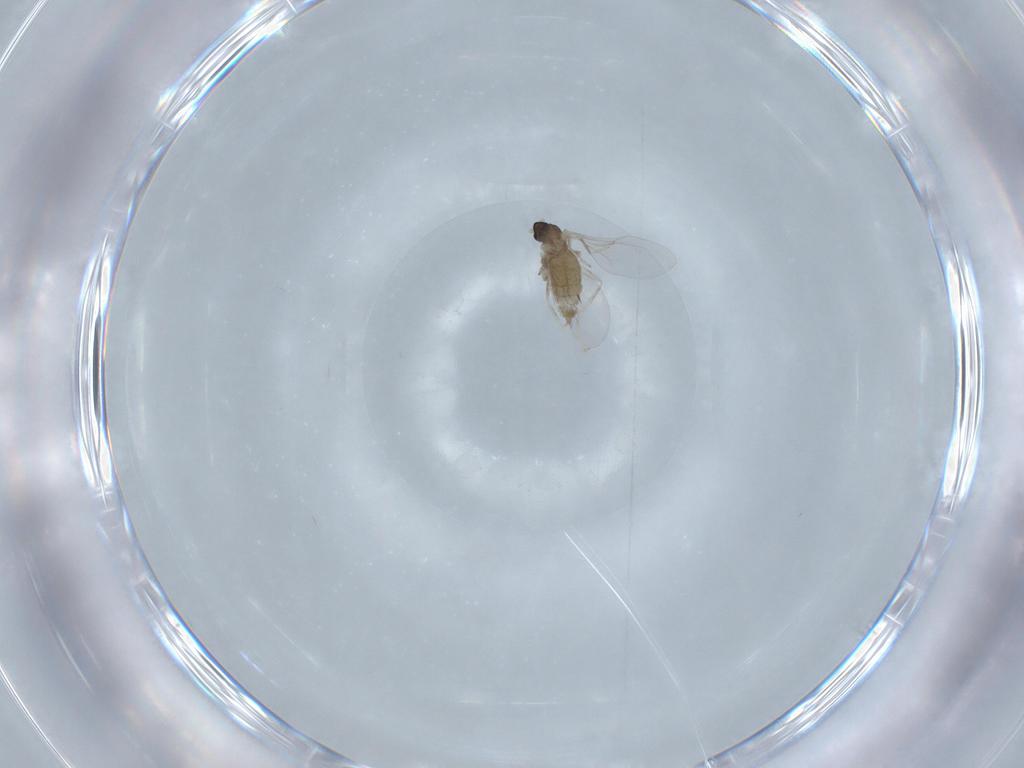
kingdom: Animalia
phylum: Arthropoda
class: Insecta
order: Diptera
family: Cecidomyiidae
